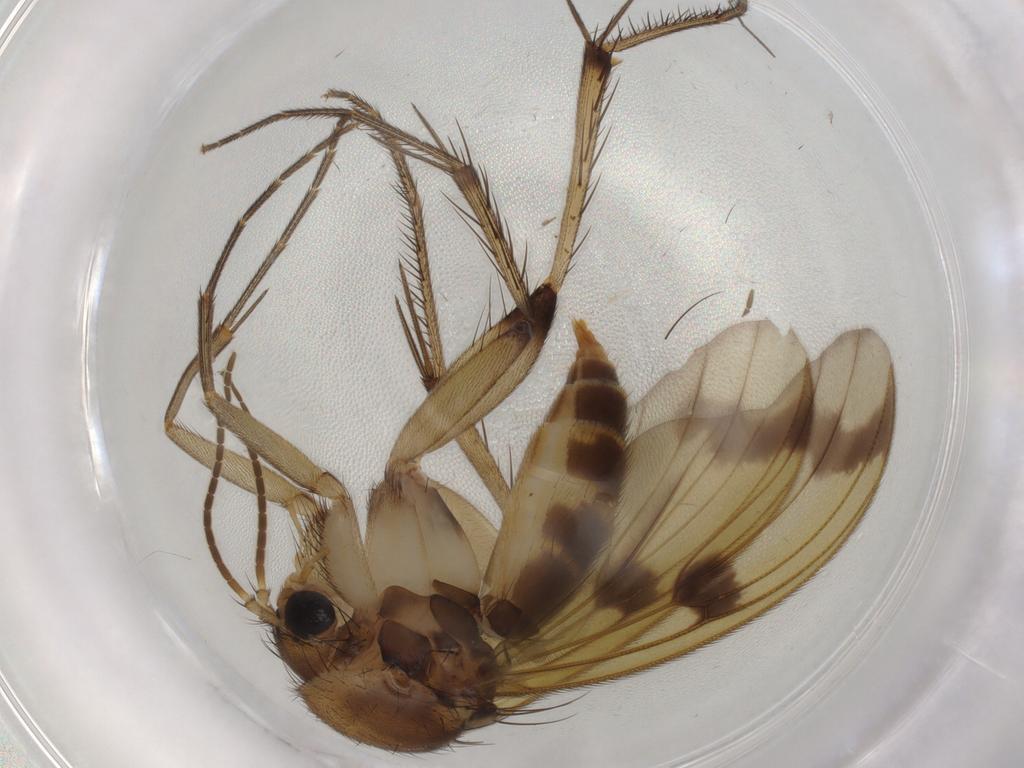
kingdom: Animalia
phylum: Arthropoda
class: Insecta
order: Diptera
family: Mycetophilidae
